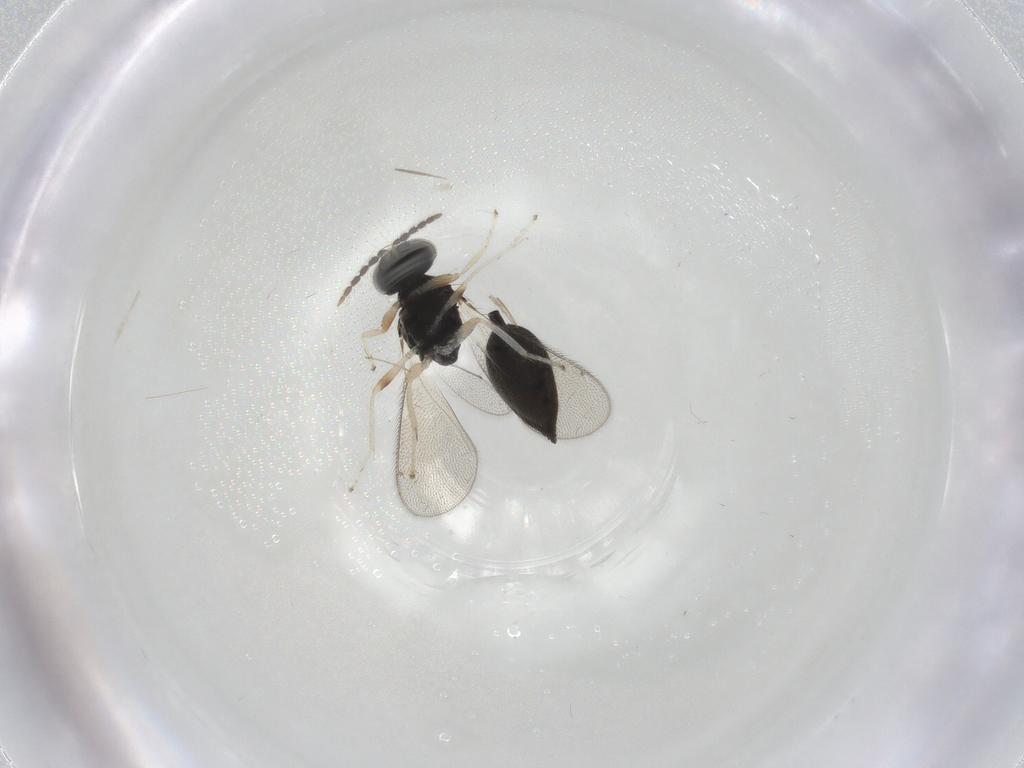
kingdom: Animalia
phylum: Arthropoda
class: Insecta
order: Hymenoptera
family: Eulophidae
